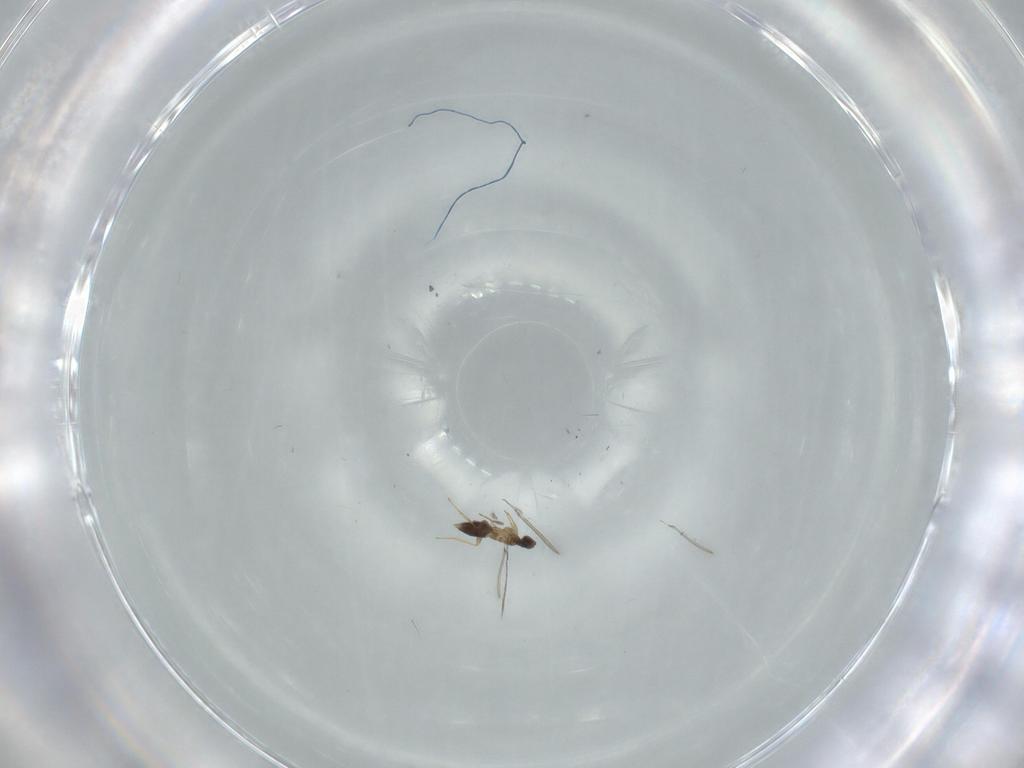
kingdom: Animalia
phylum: Arthropoda
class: Insecta
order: Hymenoptera
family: Mymaridae
